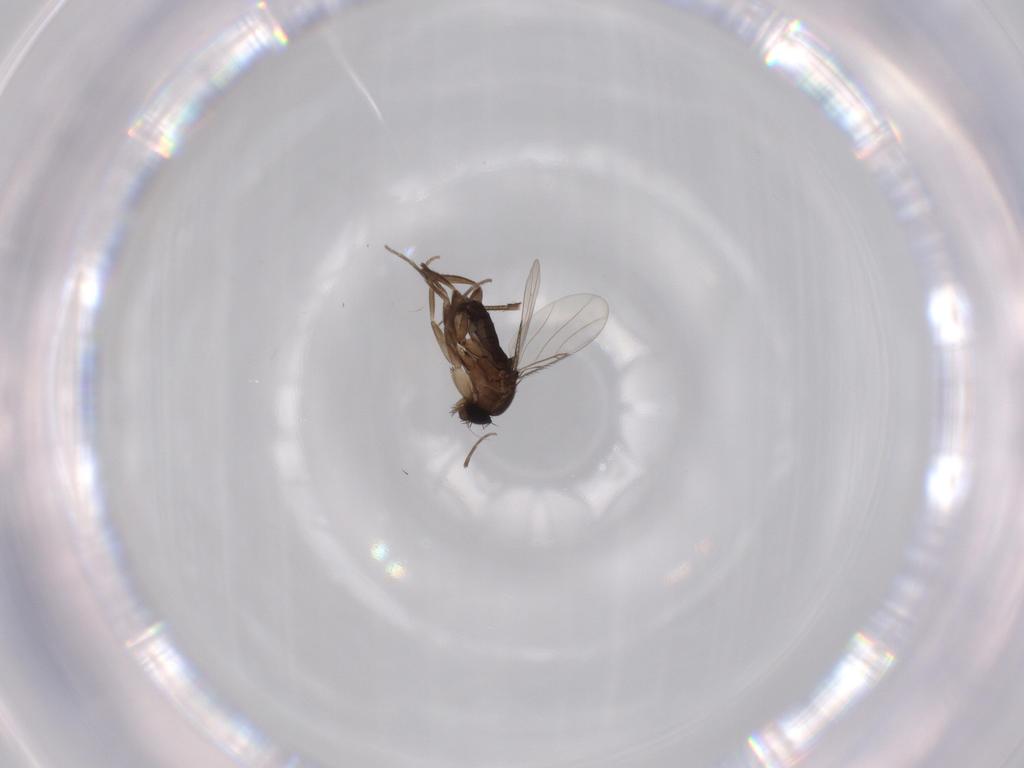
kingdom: Animalia
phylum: Arthropoda
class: Insecta
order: Diptera
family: Phoridae
